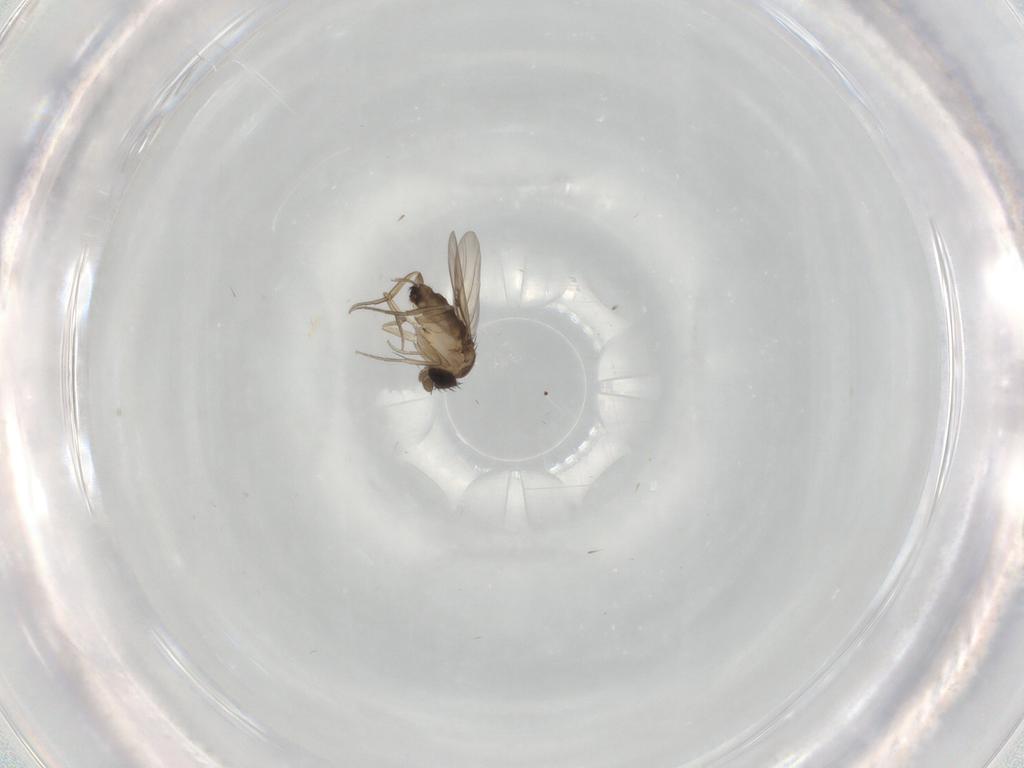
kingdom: Animalia
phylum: Arthropoda
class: Insecta
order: Diptera
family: Phoridae
